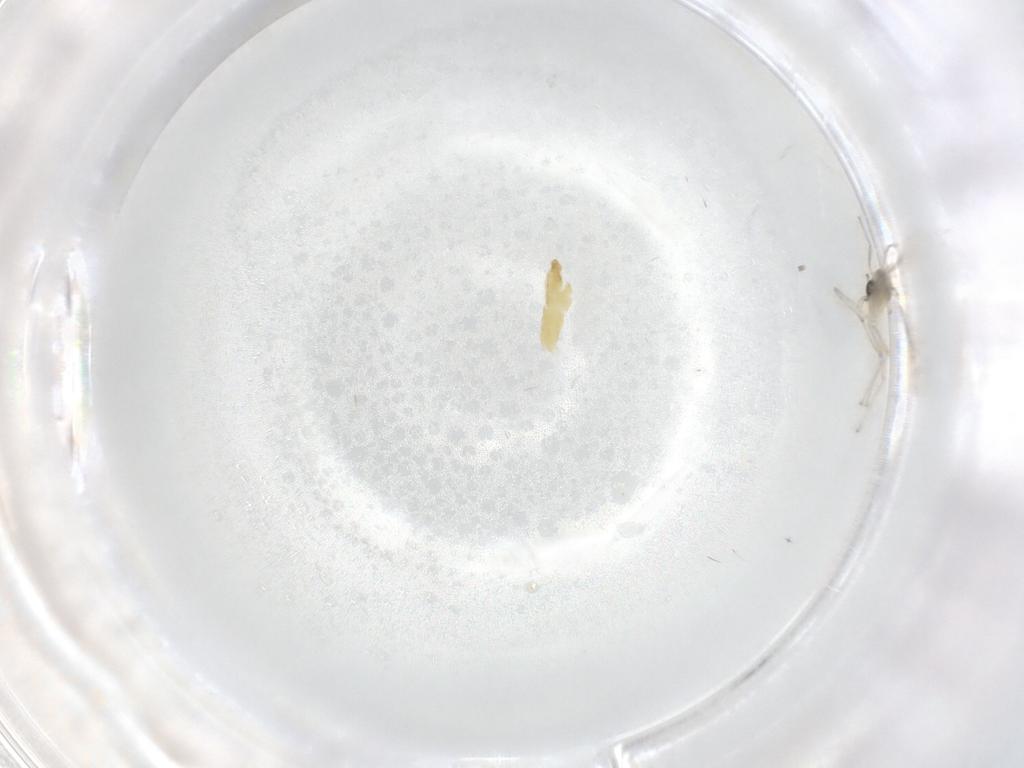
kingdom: Animalia
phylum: Arthropoda
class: Insecta
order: Diptera
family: Chironomidae
